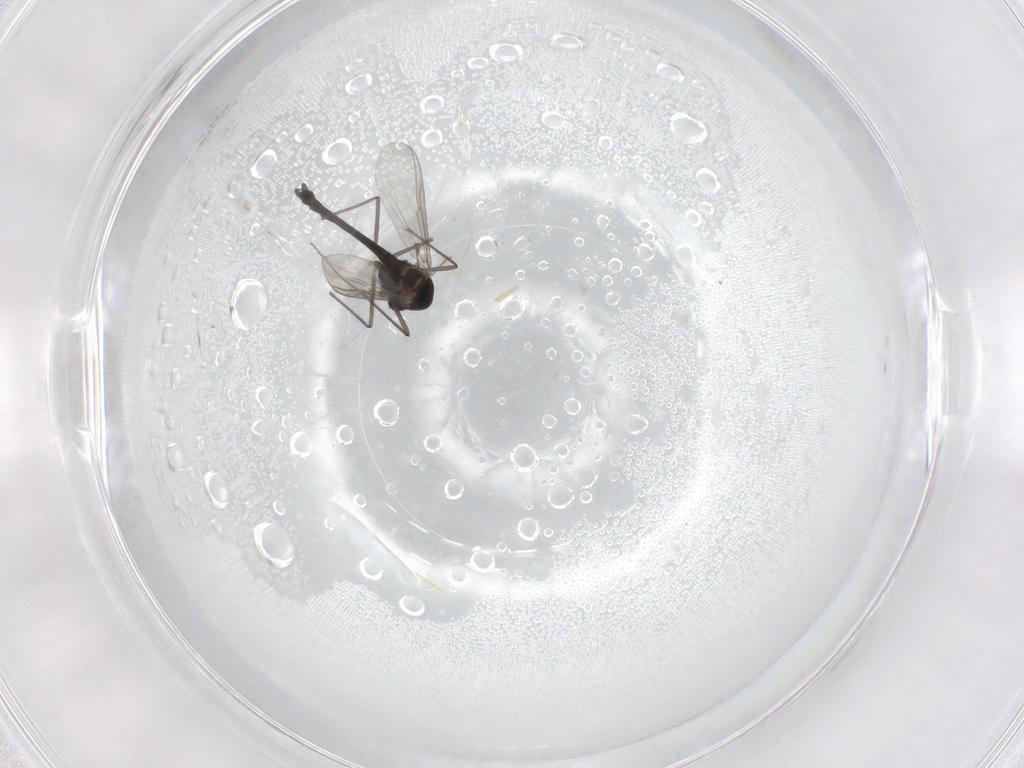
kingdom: Animalia
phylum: Arthropoda
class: Insecta
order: Diptera
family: Chironomidae
